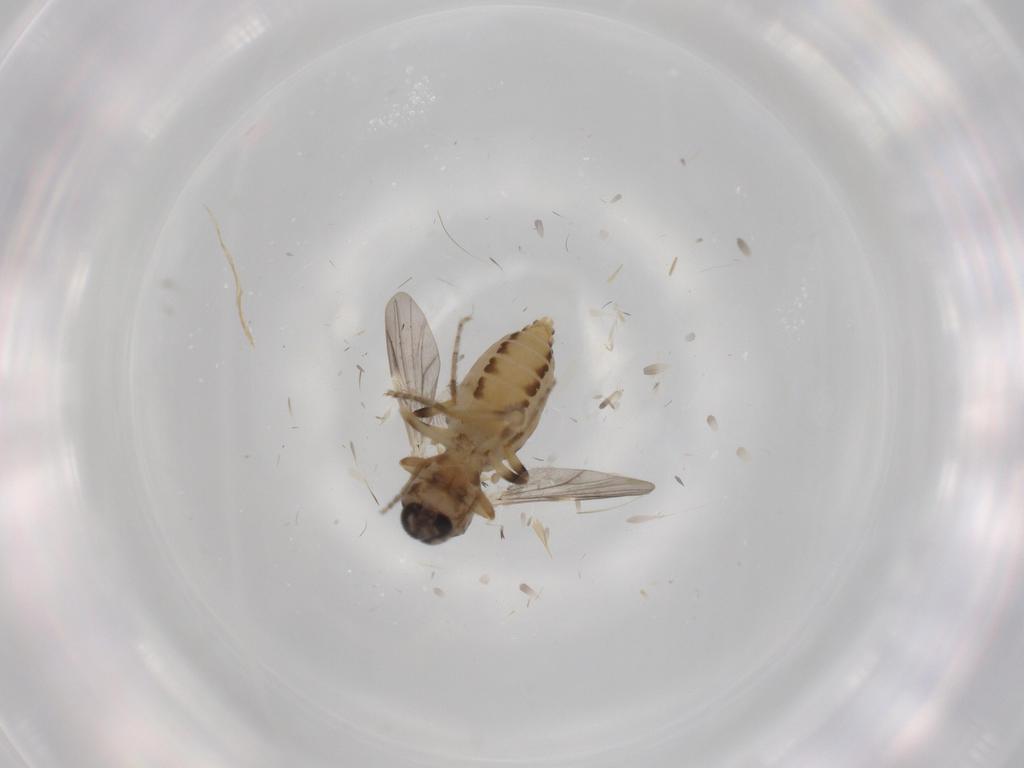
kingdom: Animalia
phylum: Arthropoda
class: Insecta
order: Diptera
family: Ceratopogonidae
